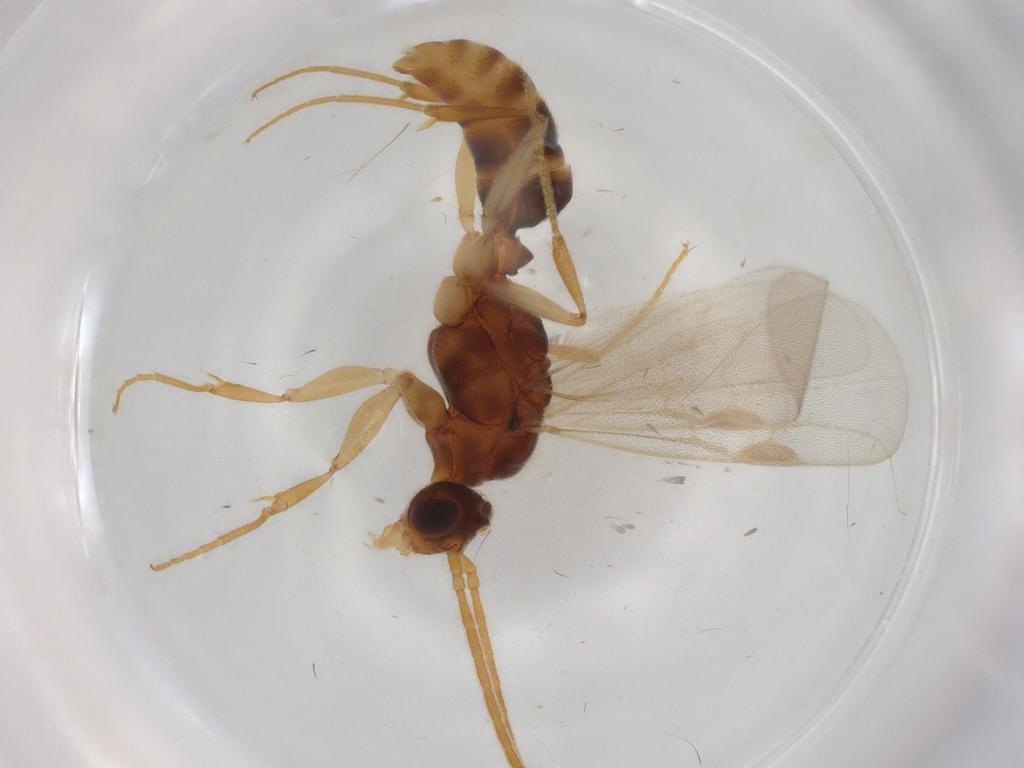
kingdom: Animalia
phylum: Arthropoda
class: Insecta
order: Hymenoptera
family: Formicidae
